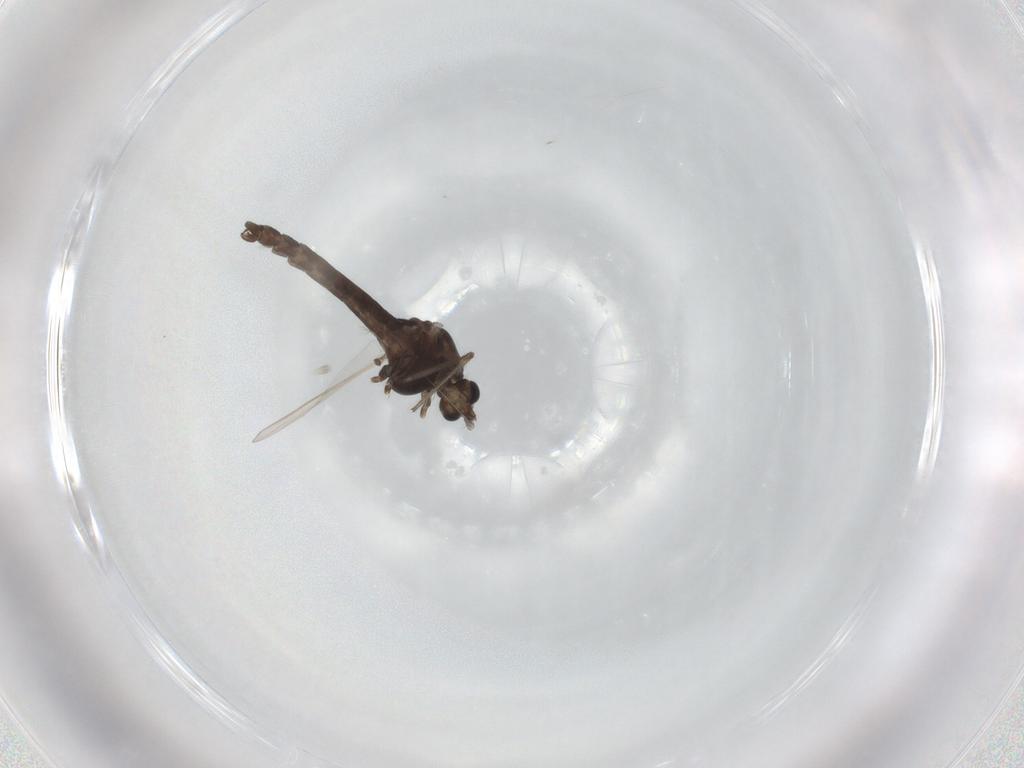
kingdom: Animalia
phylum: Arthropoda
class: Insecta
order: Diptera
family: Chironomidae
